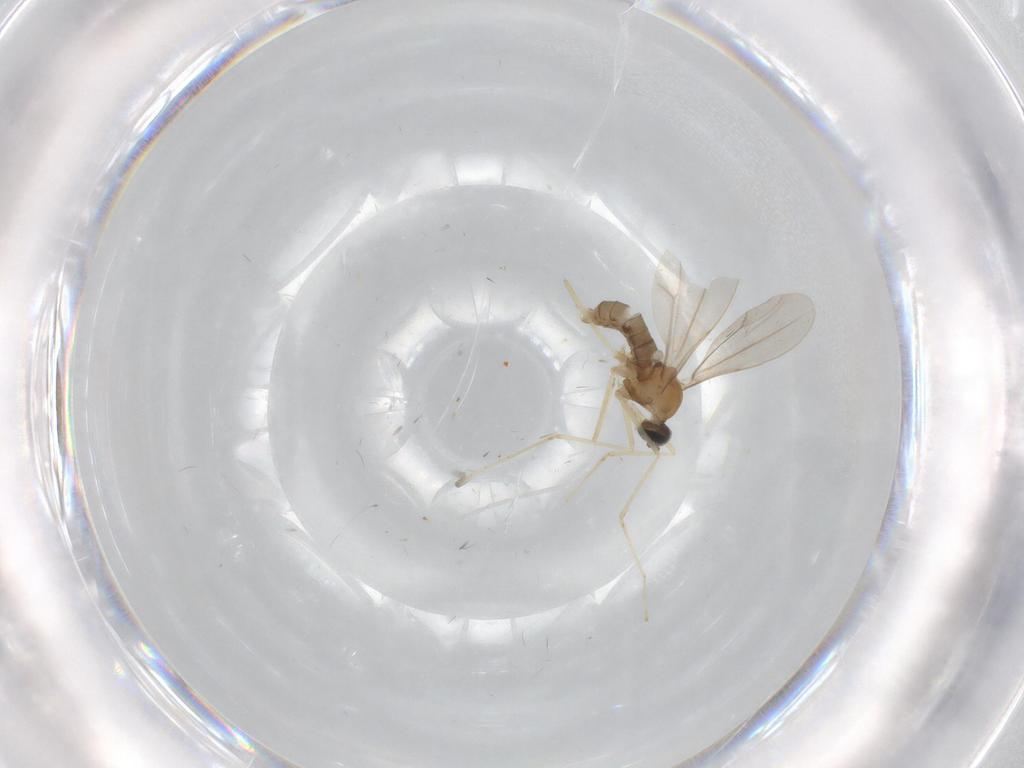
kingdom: Animalia
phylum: Arthropoda
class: Insecta
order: Diptera
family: Cecidomyiidae
